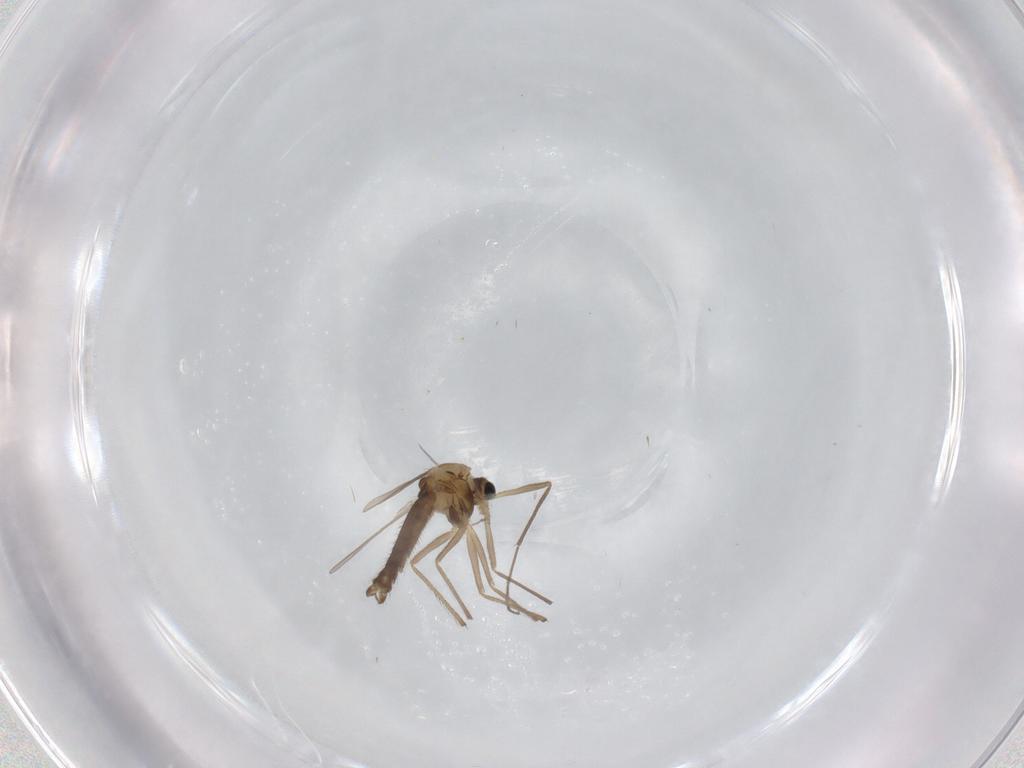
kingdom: Animalia
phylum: Arthropoda
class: Insecta
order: Diptera
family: Chironomidae
